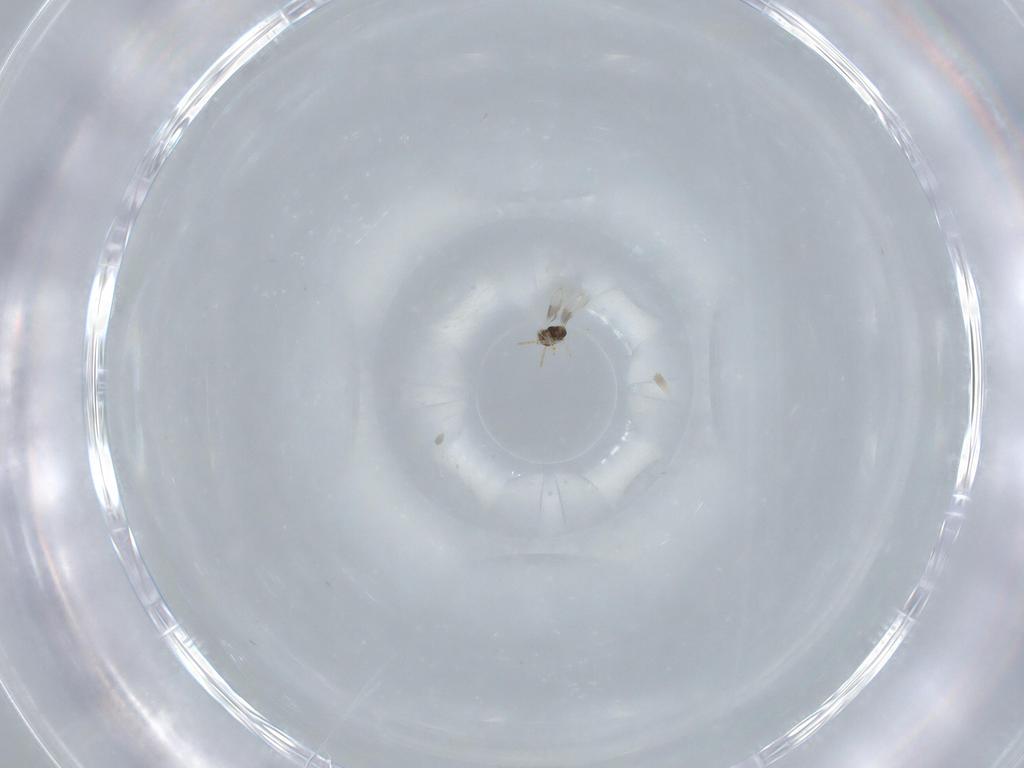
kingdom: Animalia
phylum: Arthropoda
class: Insecta
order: Hymenoptera
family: Aphelinidae
